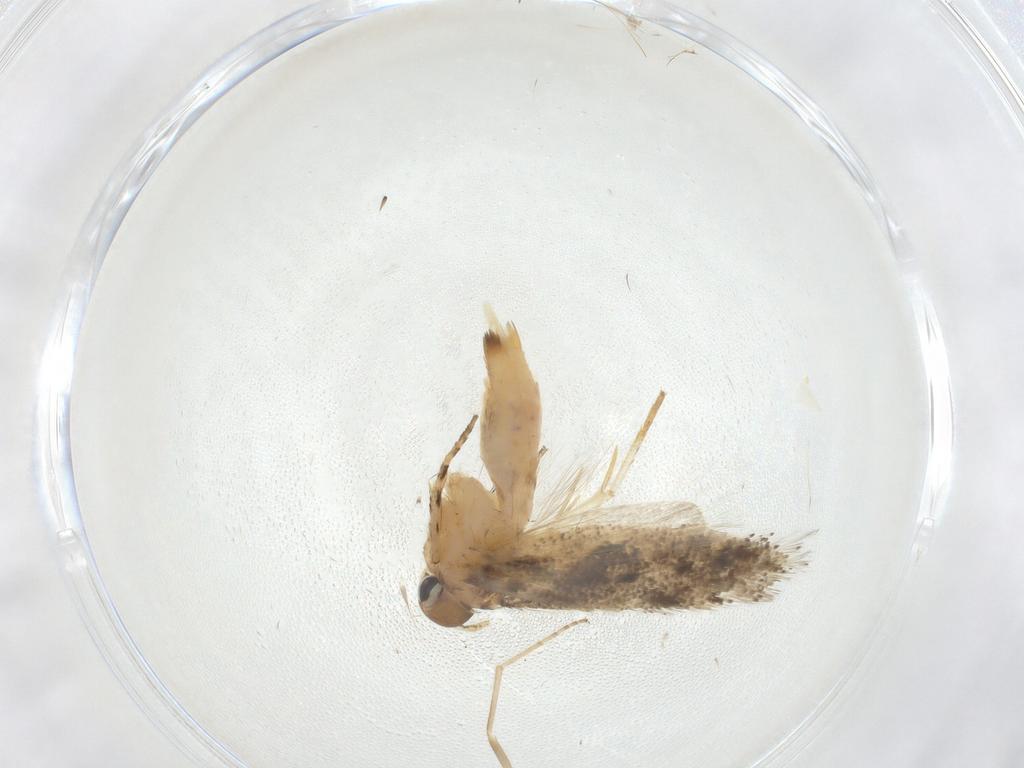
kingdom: Animalia
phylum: Arthropoda
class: Insecta
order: Lepidoptera
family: Gelechiidae
